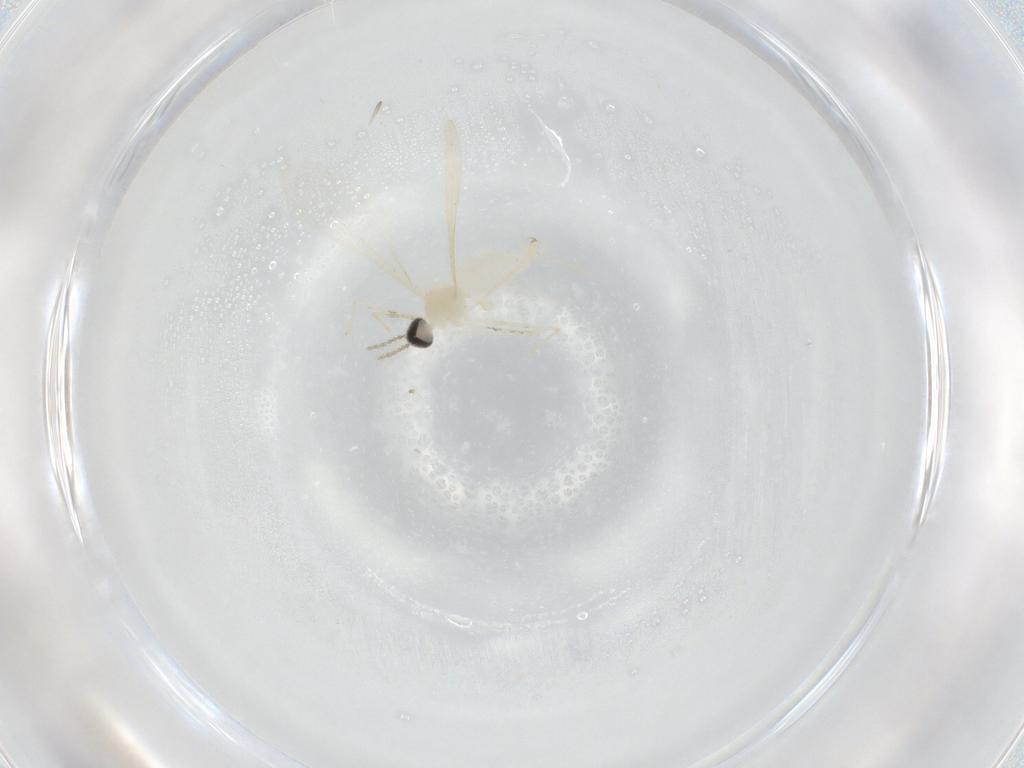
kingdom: Animalia
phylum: Arthropoda
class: Insecta
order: Diptera
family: Cecidomyiidae
